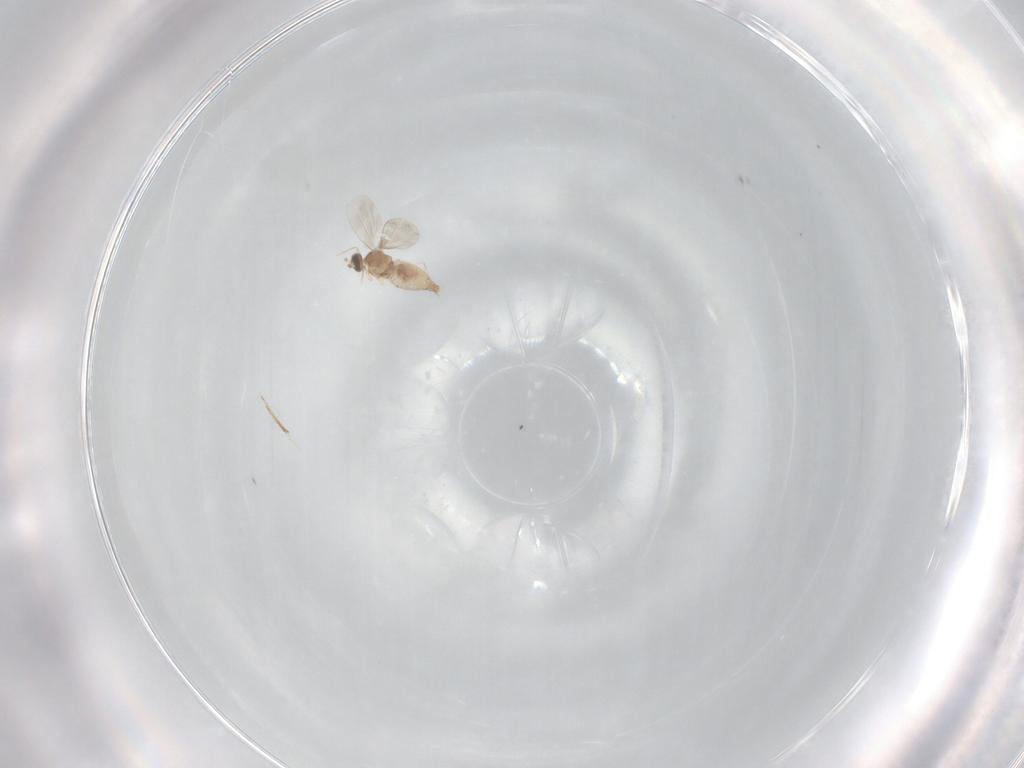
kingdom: Animalia
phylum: Arthropoda
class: Insecta
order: Diptera
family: Cecidomyiidae
